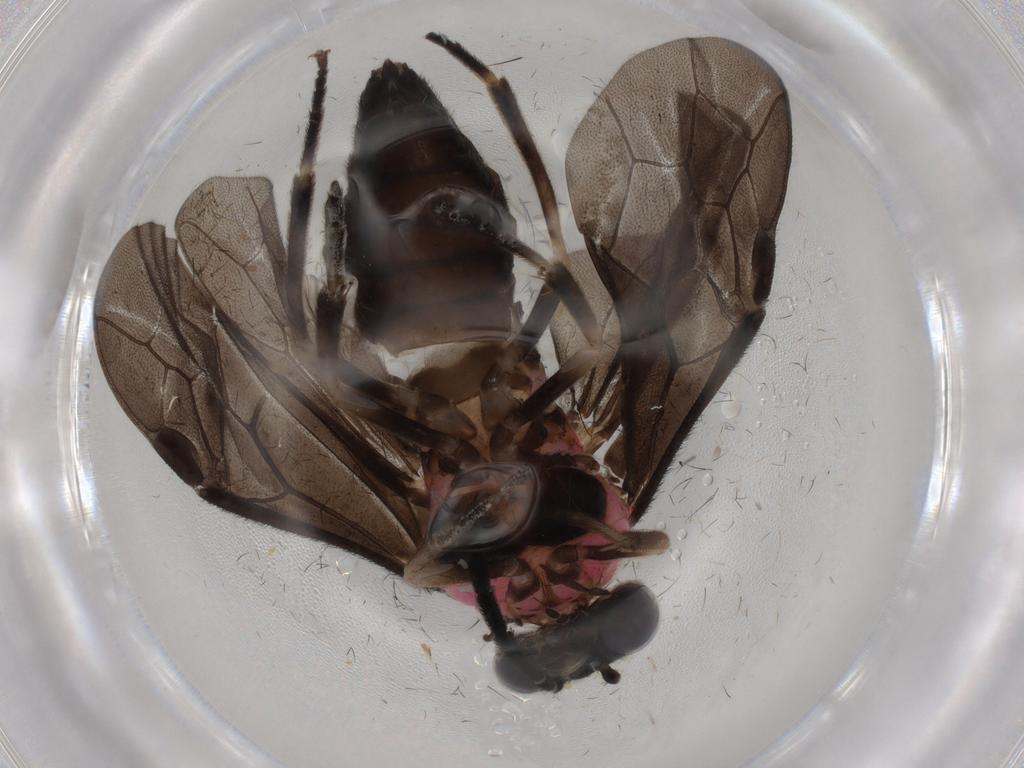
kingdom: Animalia
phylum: Arthropoda
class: Insecta
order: Hymenoptera
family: Tenthredinidae
